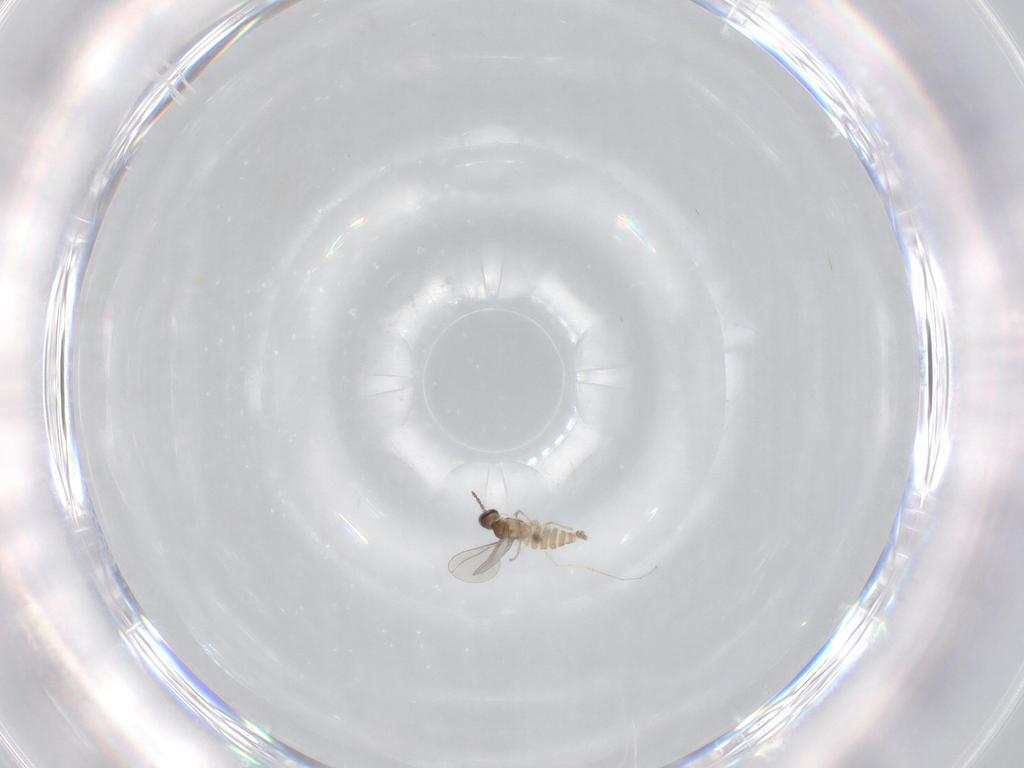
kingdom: Animalia
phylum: Arthropoda
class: Insecta
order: Diptera
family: Cecidomyiidae
